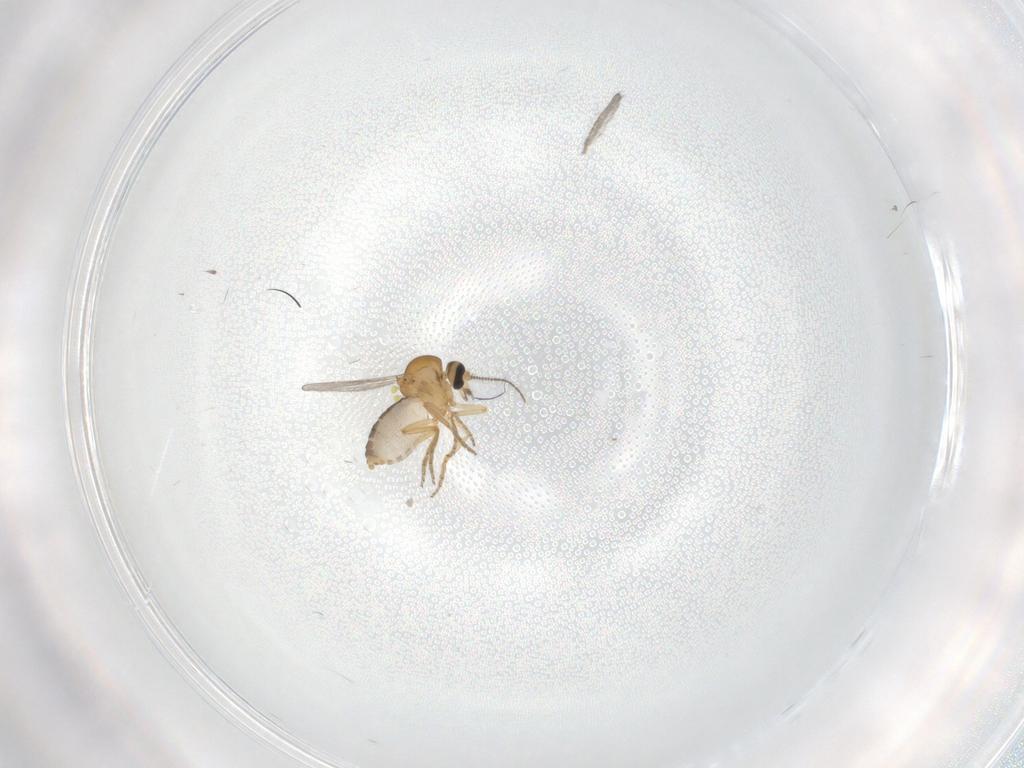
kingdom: Animalia
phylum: Arthropoda
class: Insecta
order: Diptera
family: Ceratopogonidae
